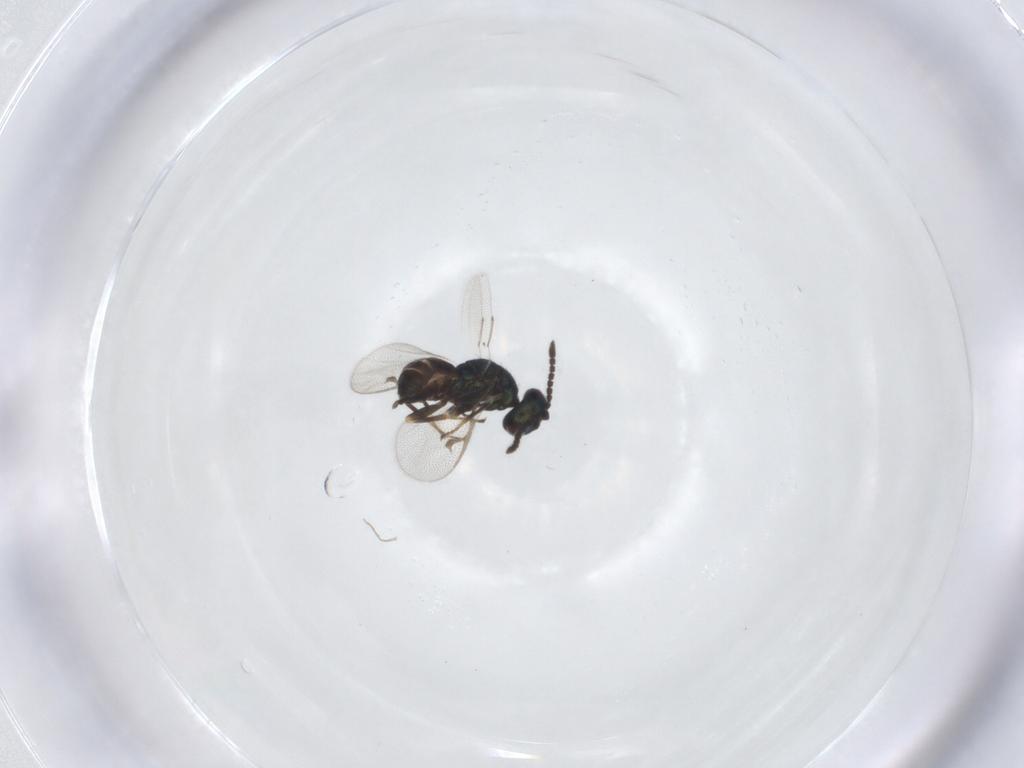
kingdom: Animalia
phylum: Arthropoda
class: Insecta
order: Hymenoptera
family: Pteromalidae
